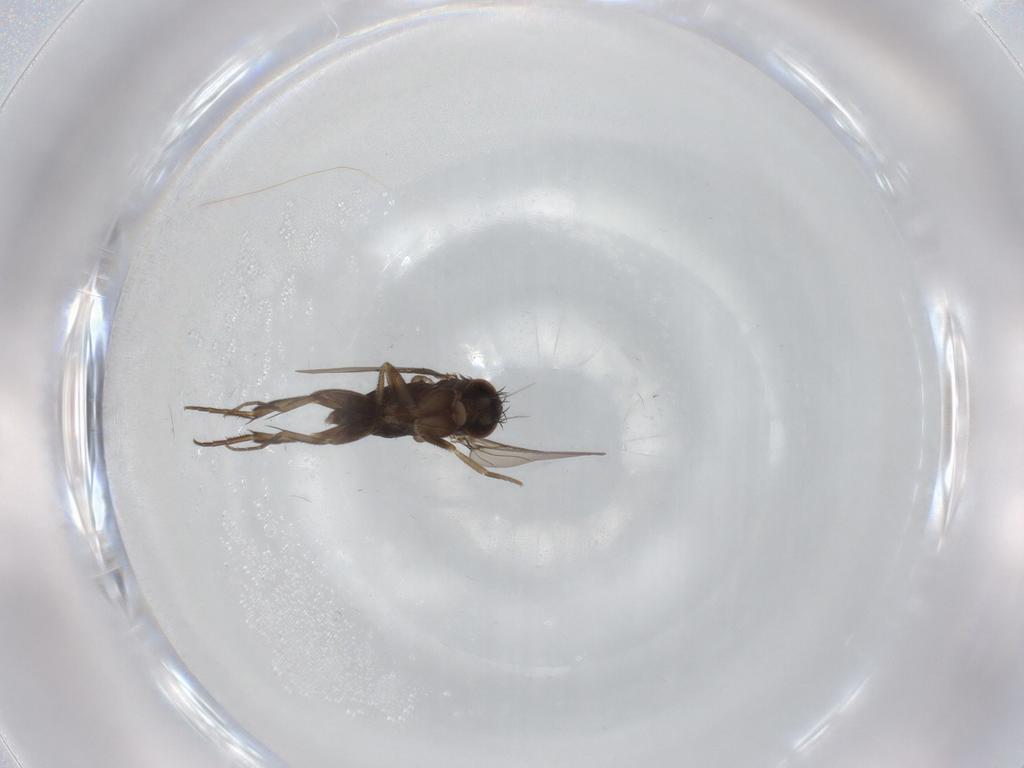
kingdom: Animalia
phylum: Arthropoda
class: Insecta
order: Diptera
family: Phoridae
